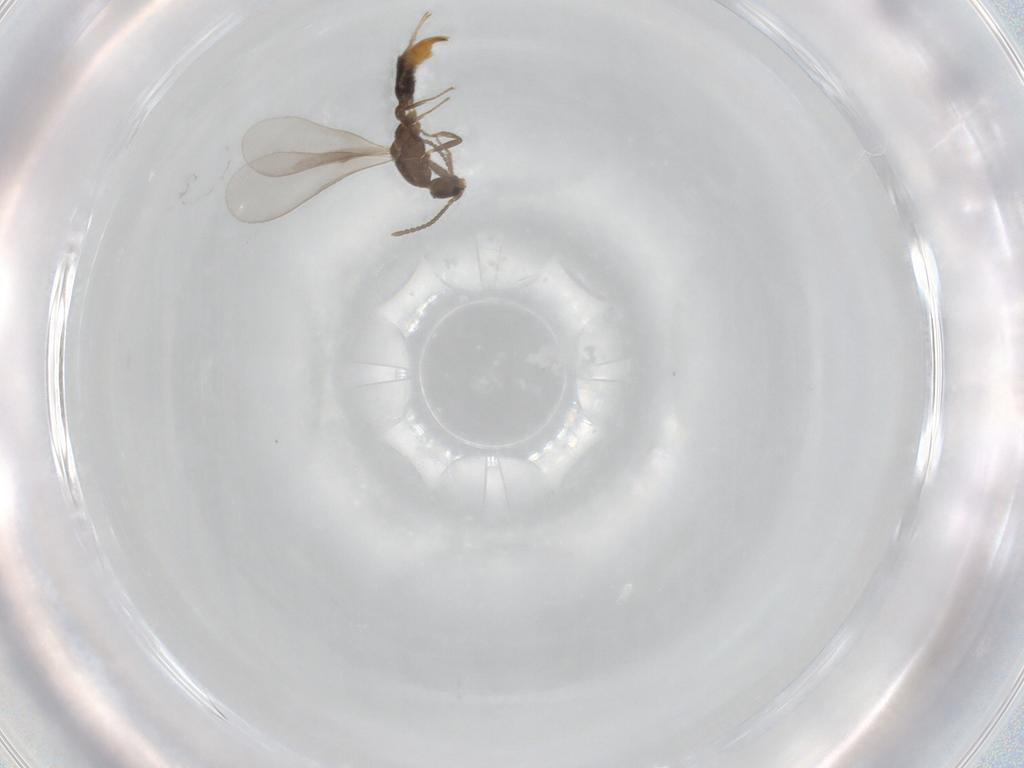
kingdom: Animalia
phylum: Arthropoda
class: Insecta
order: Hymenoptera
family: Formicidae
